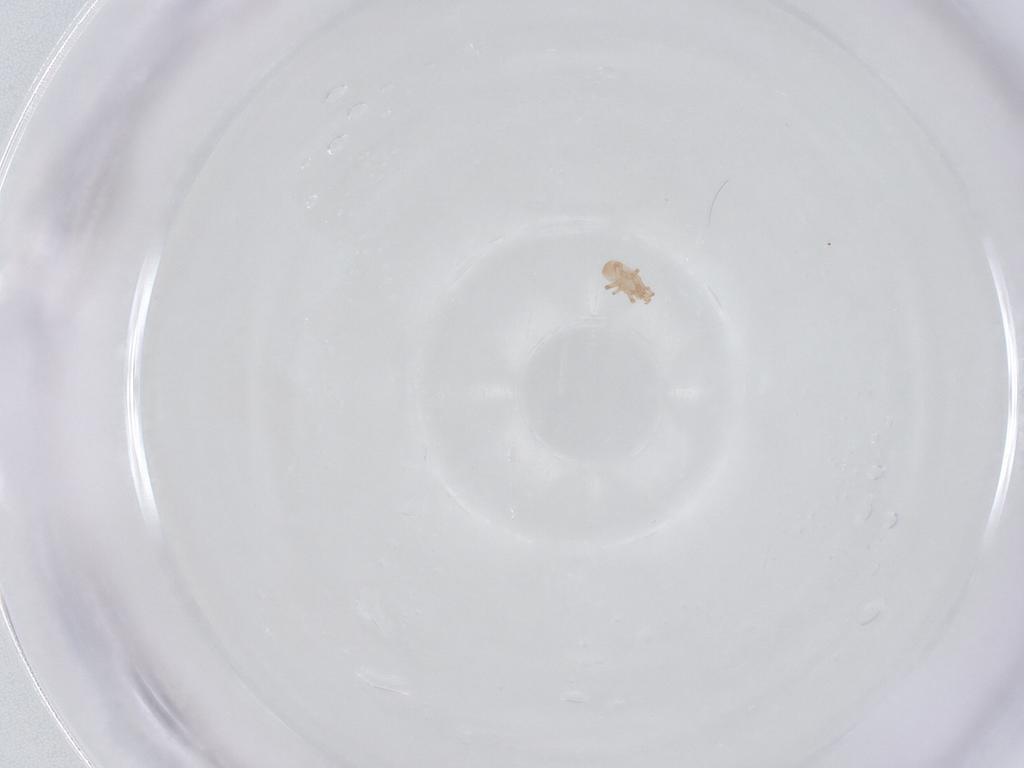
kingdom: Animalia
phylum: Arthropoda
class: Arachnida
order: Mesostigmata
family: Digamasellidae
